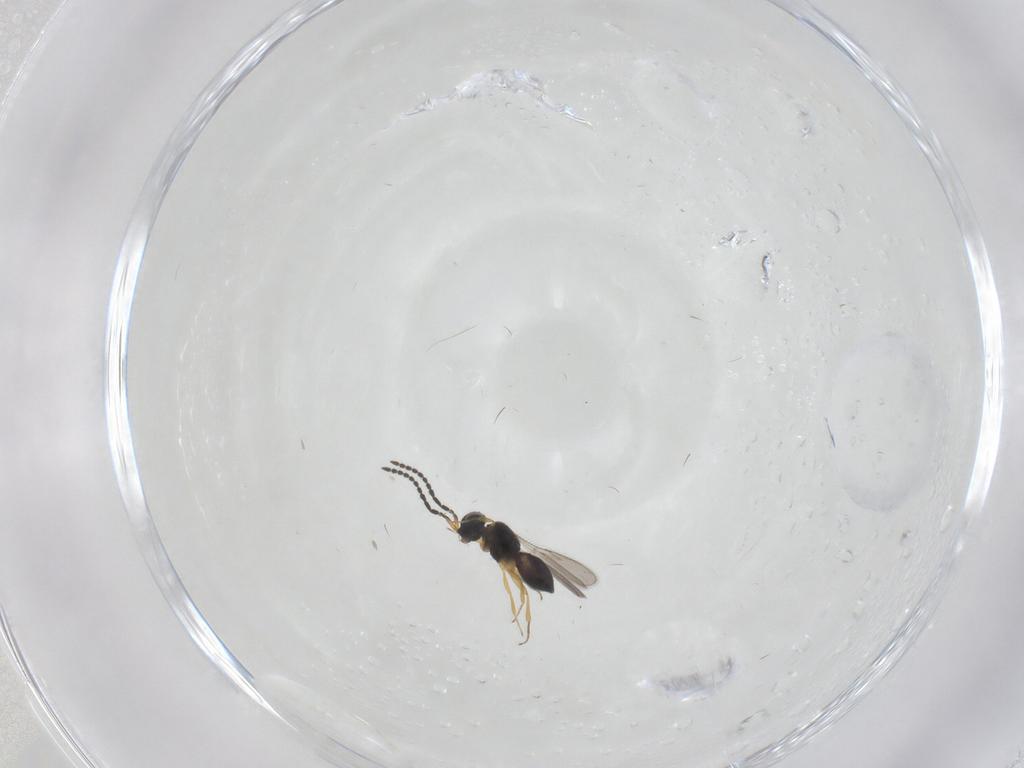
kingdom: Animalia
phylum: Arthropoda
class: Insecta
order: Hymenoptera
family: Scelionidae
